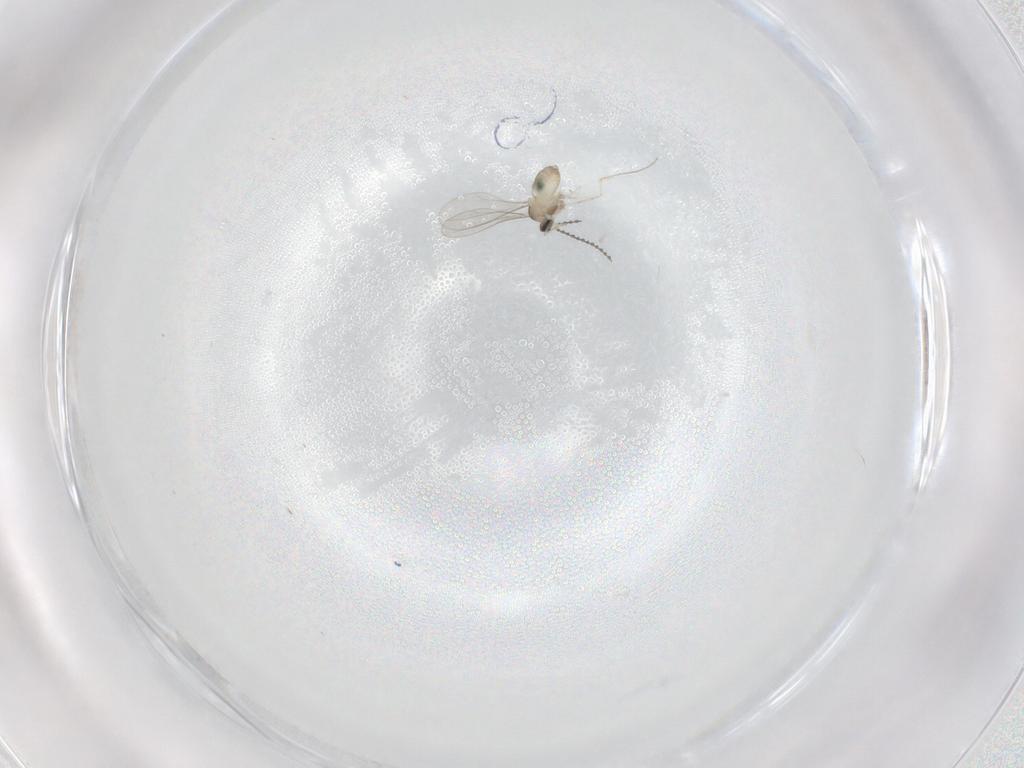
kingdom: Animalia
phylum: Arthropoda
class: Insecta
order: Diptera
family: Cecidomyiidae
